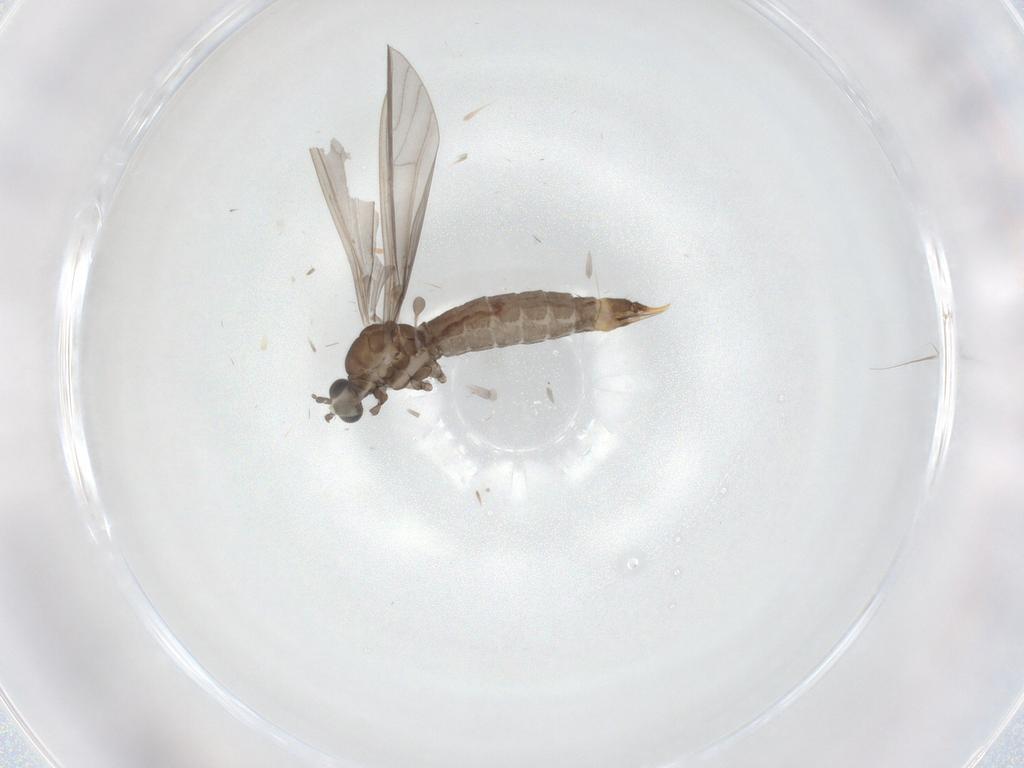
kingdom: Animalia
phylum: Arthropoda
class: Insecta
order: Diptera
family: Limoniidae
